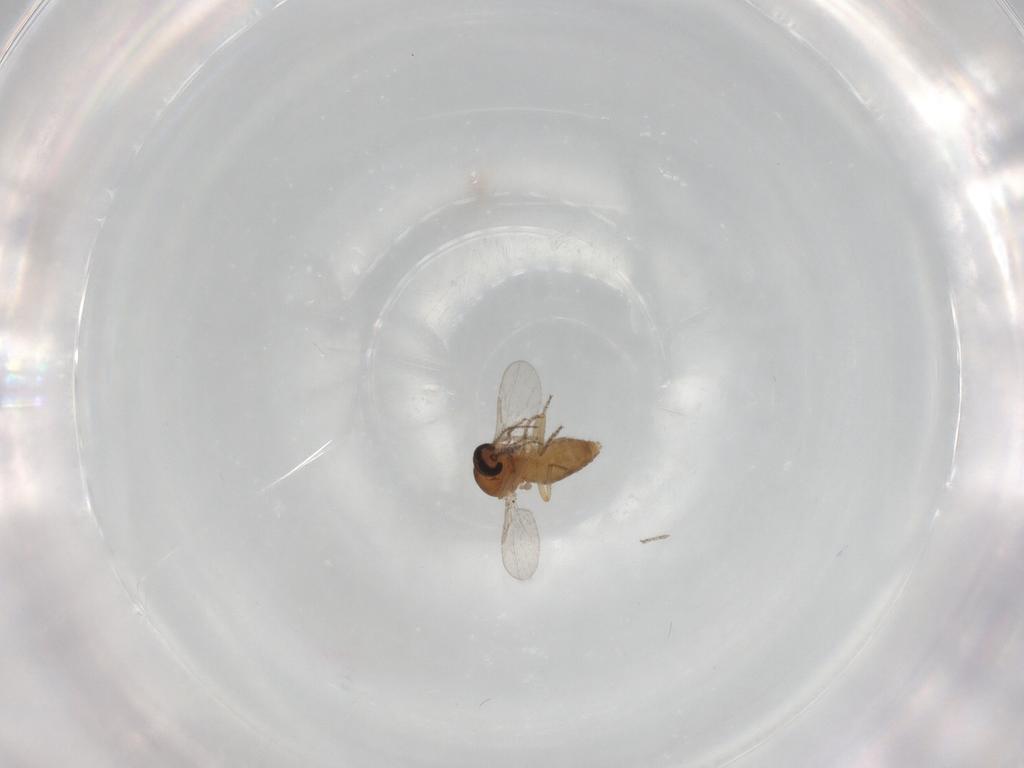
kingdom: Animalia
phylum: Arthropoda
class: Insecta
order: Diptera
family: Ceratopogonidae
